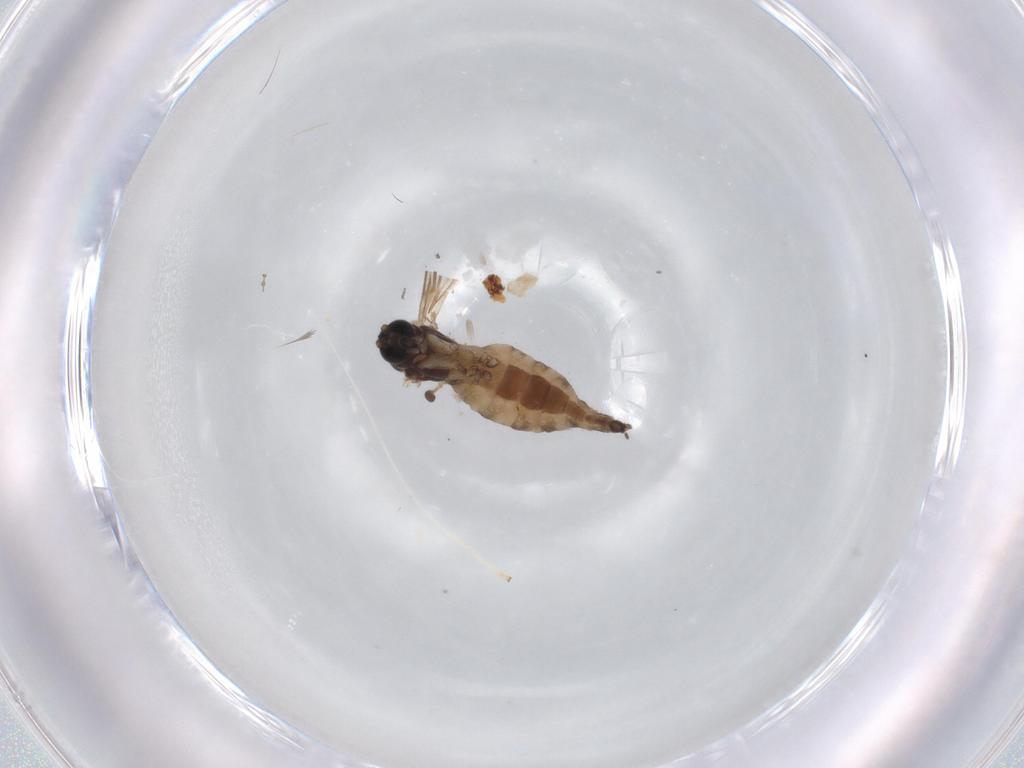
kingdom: Animalia
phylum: Arthropoda
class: Insecta
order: Diptera
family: Sciaridae
